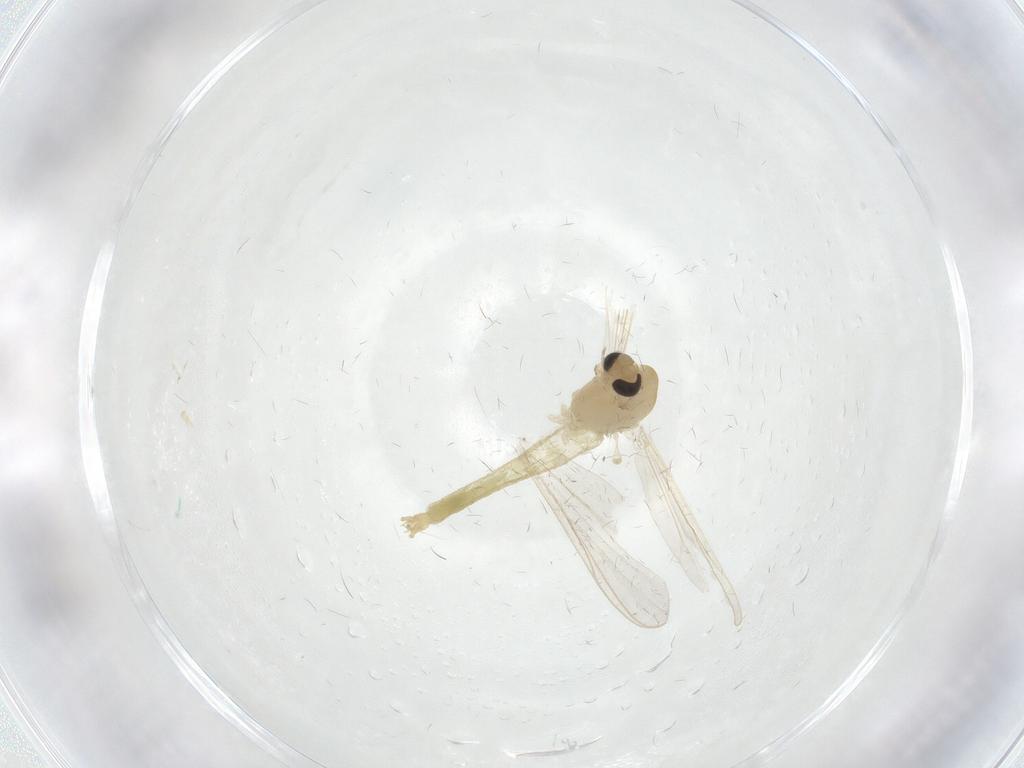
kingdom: Animalia
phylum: Arthropoda
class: Insecta
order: Diptera
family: Chironomidae
